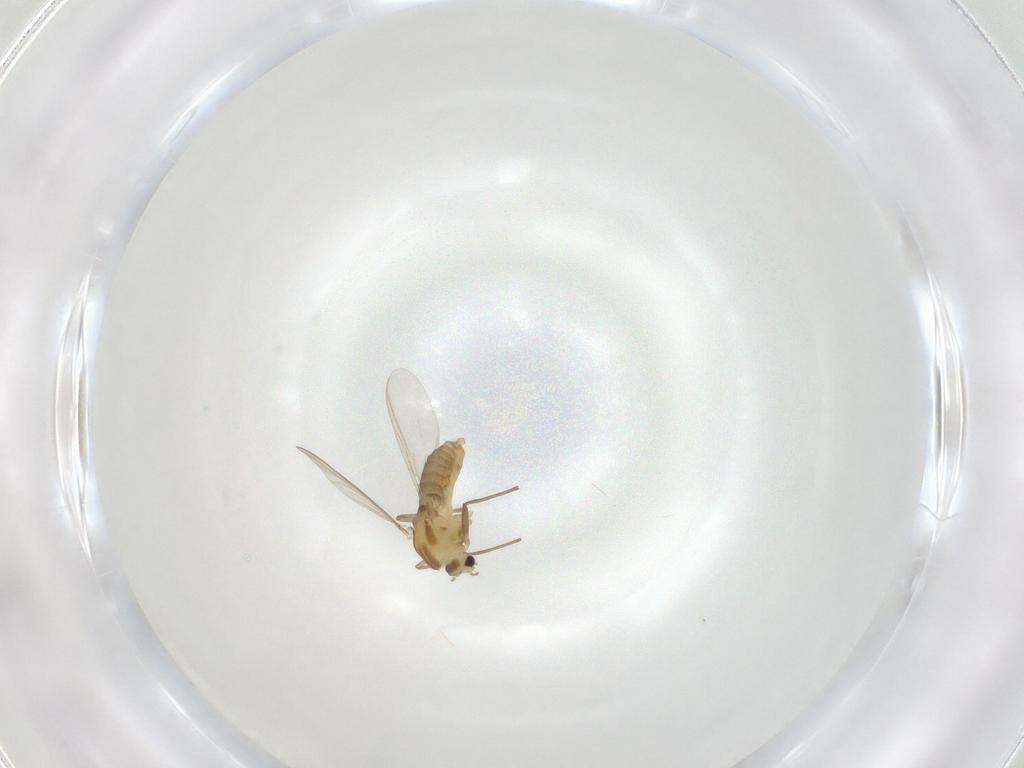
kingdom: Animalia
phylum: Arthropoda
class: Insecta
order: Diptera
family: Chironomidae
